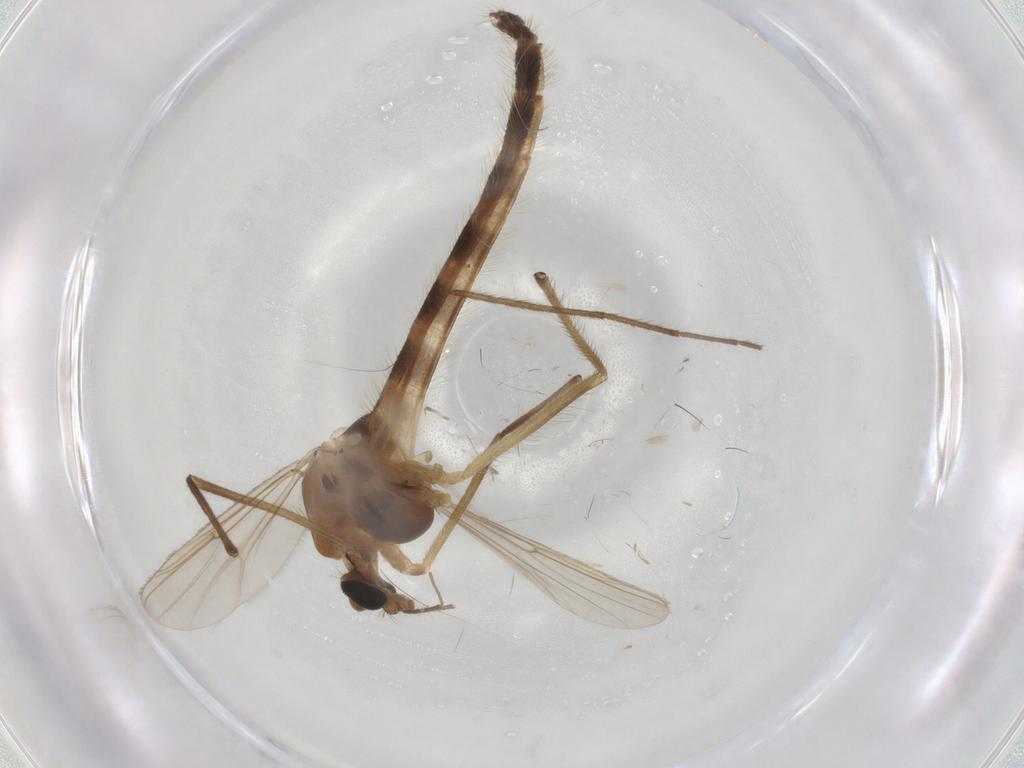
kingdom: Animalia
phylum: Arthropoda
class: Insecta
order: Diptera
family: Chironomidae
